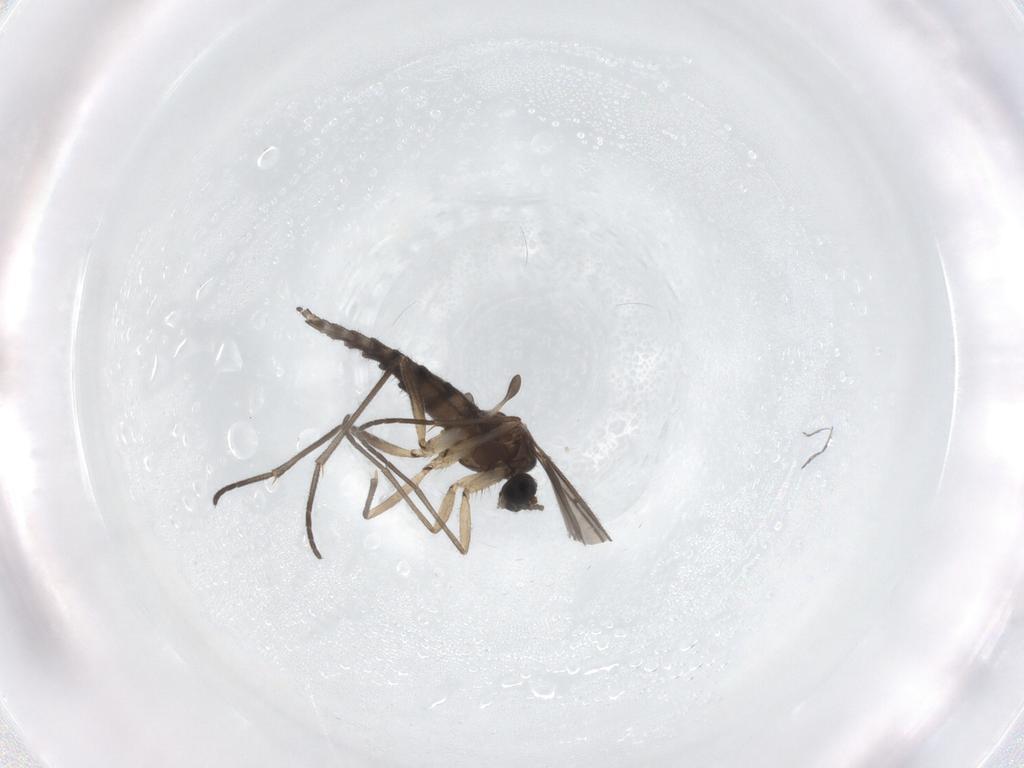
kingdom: Animalia
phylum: Arthropoda
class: Insecta
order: Diptera
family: Sciaridae
